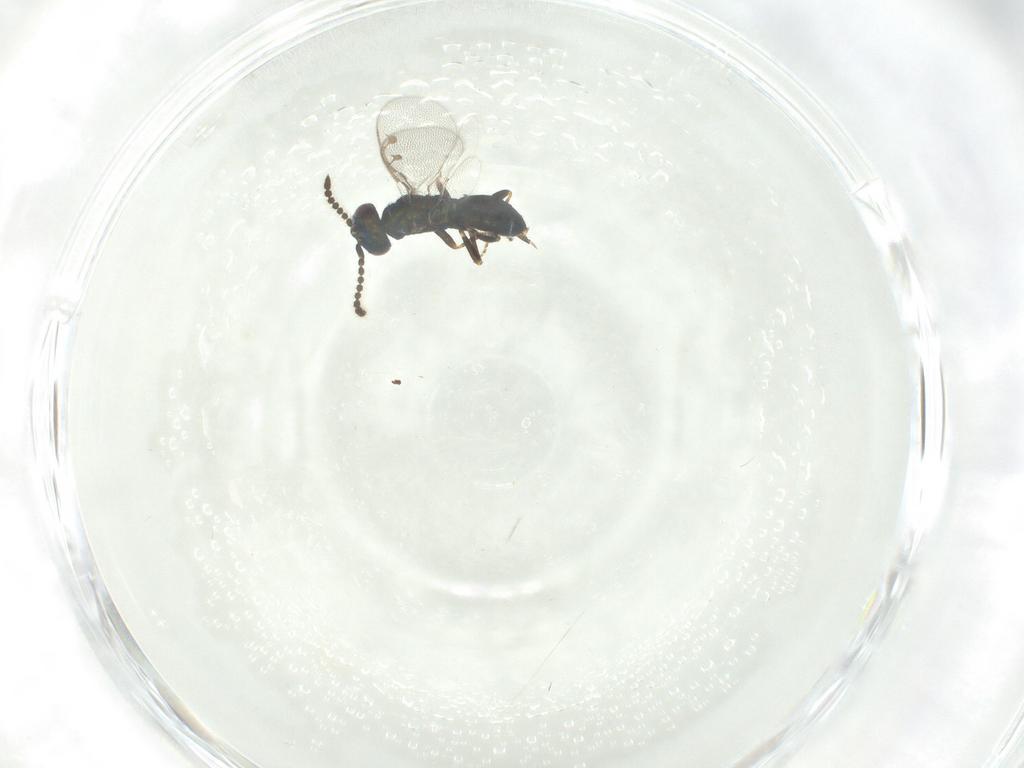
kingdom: Animalia
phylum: Arthropoda
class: Insecta
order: Hymenoptera
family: Pirenidae
